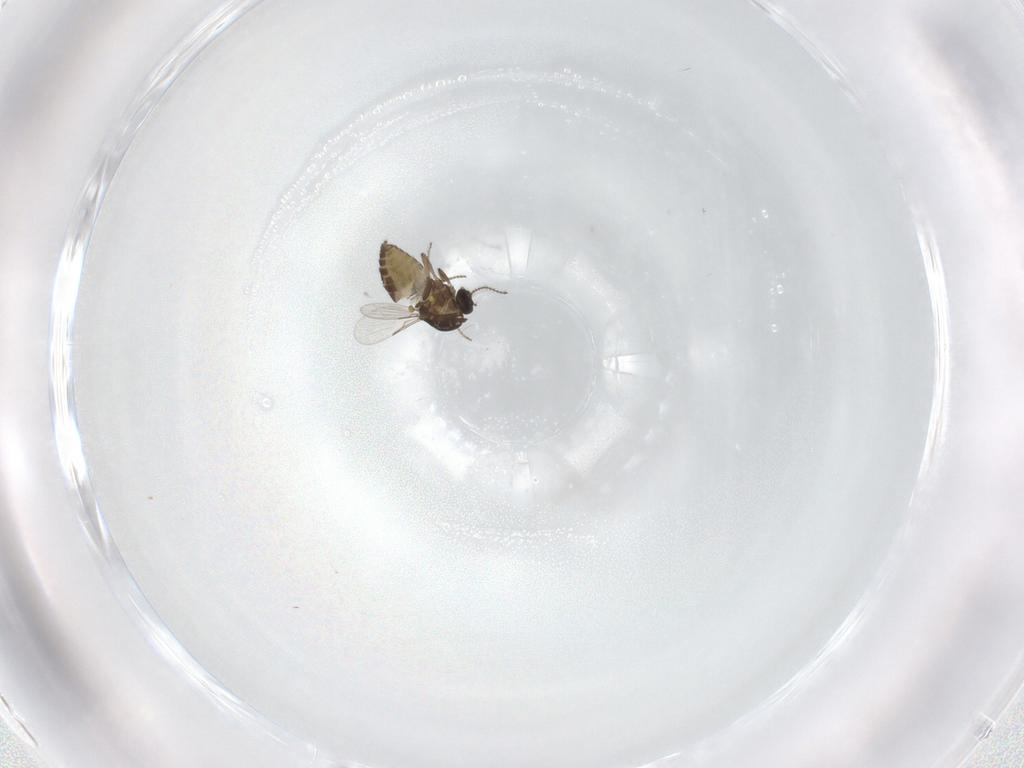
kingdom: Animalia
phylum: Arthropoda
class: Insecta
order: Diptera
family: Ceratopogonidae
